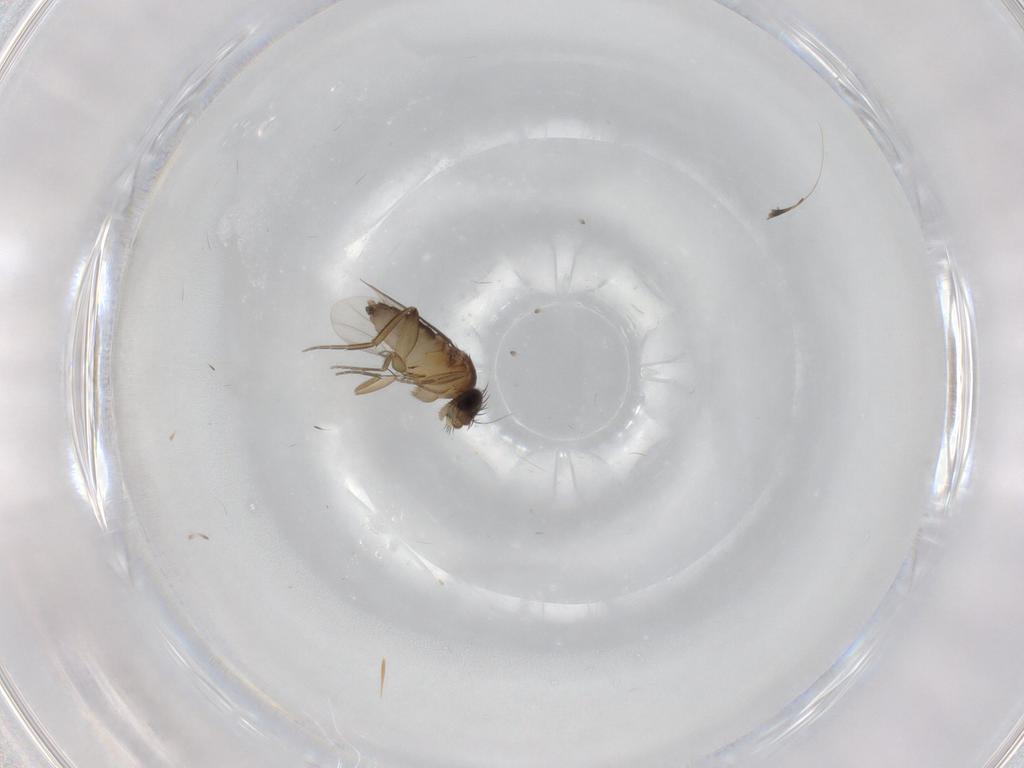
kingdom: Animalia
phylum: Arthropoda
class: Insecta
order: Diptera
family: Phoridae
